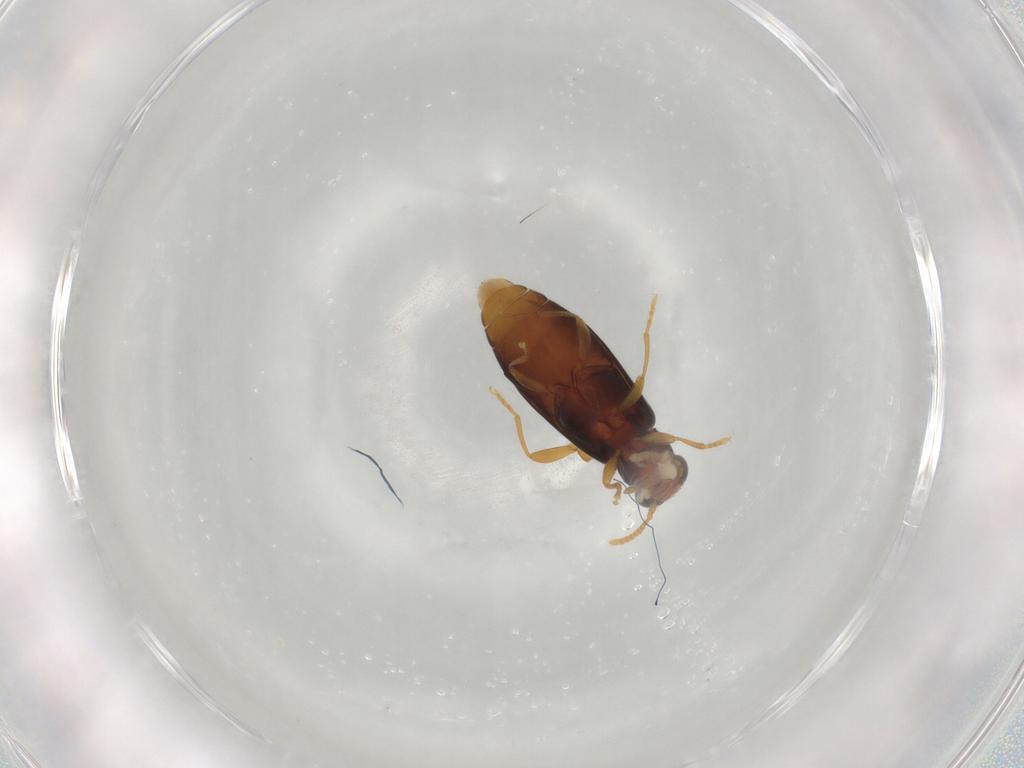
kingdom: Animalia
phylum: Arthropoda
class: Insecta
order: Coleoptera
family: Mycteridae
